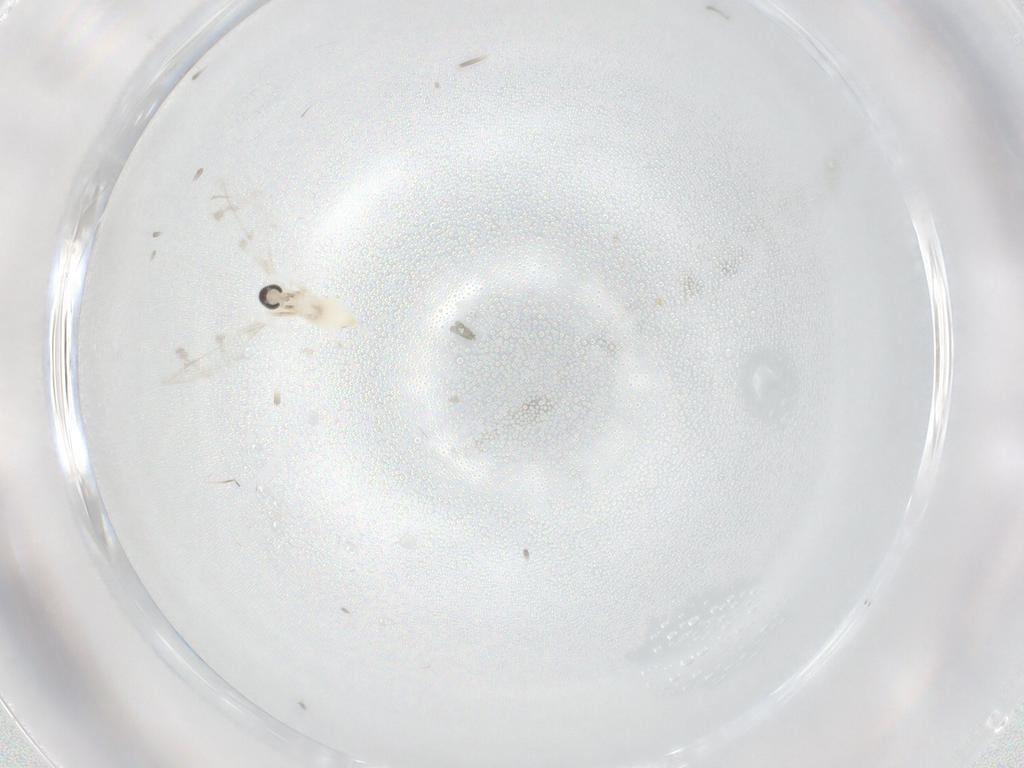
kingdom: Animalia
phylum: Arthropoda
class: Insecta
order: Diptera
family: Cecidomyiidae
